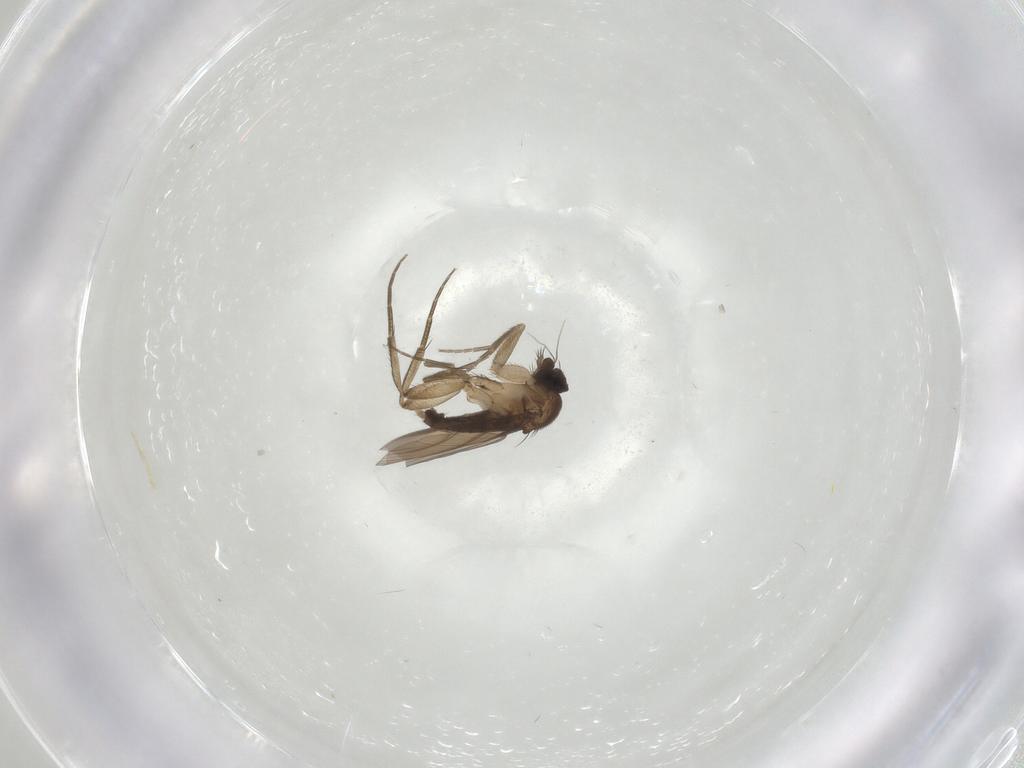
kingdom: Animalia
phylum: Arthropoda
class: Insecta
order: Diptera
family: Phoridae
